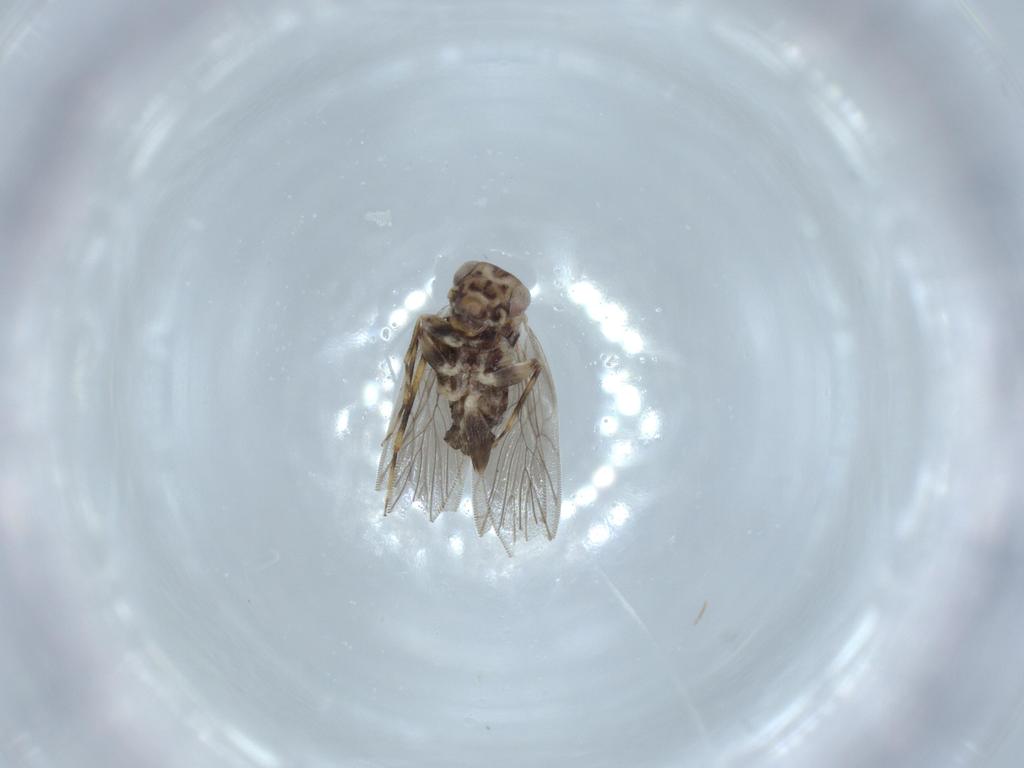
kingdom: Animalia
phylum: Arthropoda
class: Insecta
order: Psocodea
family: Lepidopsocidae
